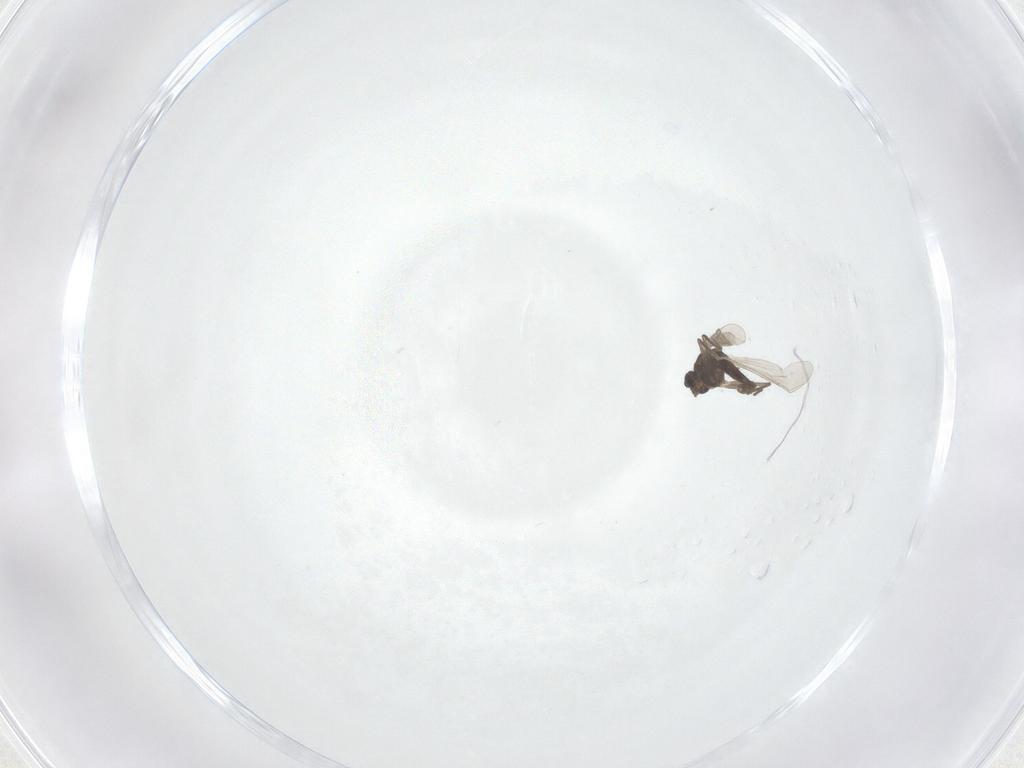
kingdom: Animalia
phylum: Arthropoda
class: Insecta
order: Diptera
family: Chironomidae
